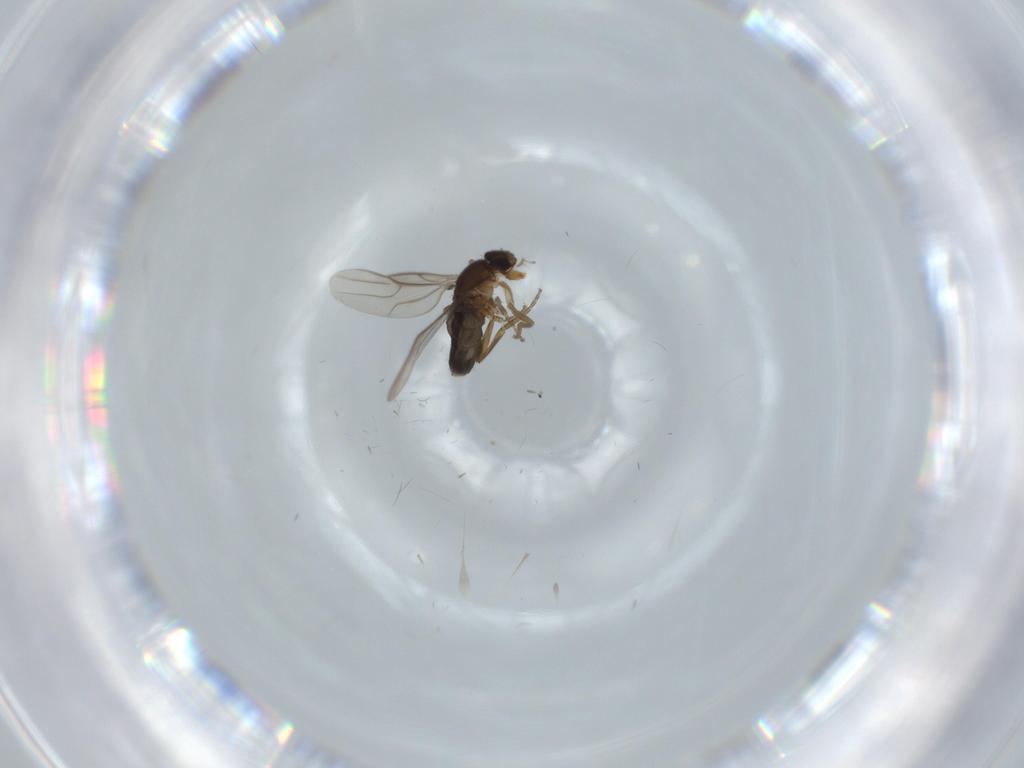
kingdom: Animalia
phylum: Arthropoda
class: Insecta
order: Diptera
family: Phoridae
